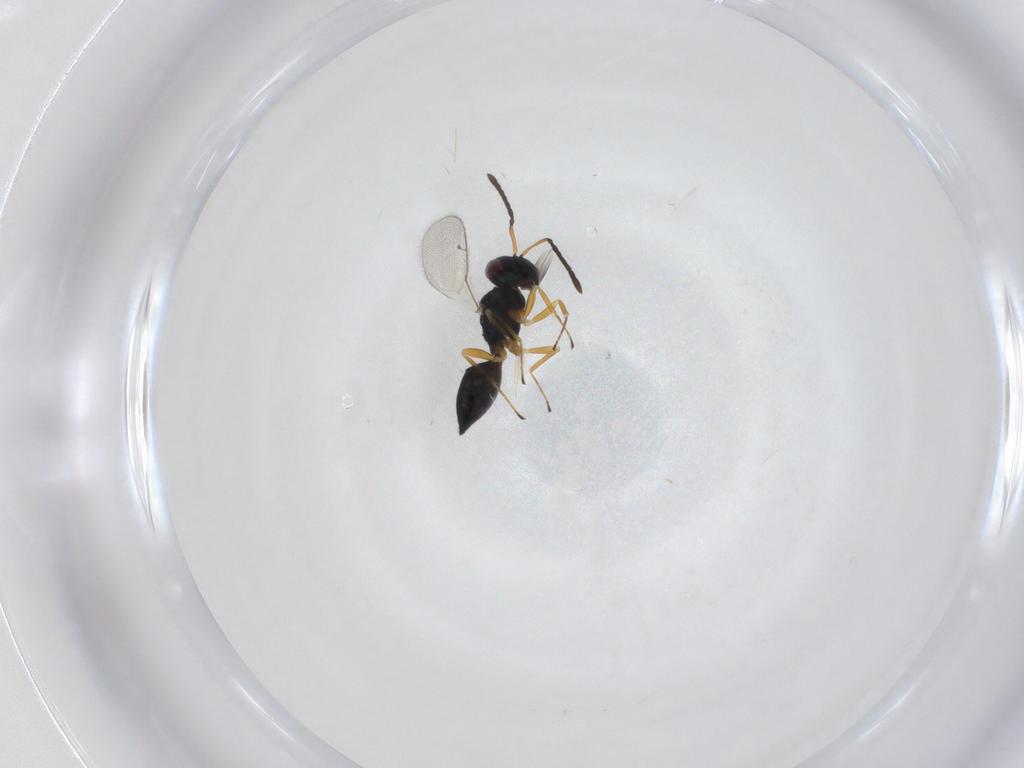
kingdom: Animalia
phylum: Arthropoda
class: Insecta
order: Hymenoptera
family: Pteromalidae
